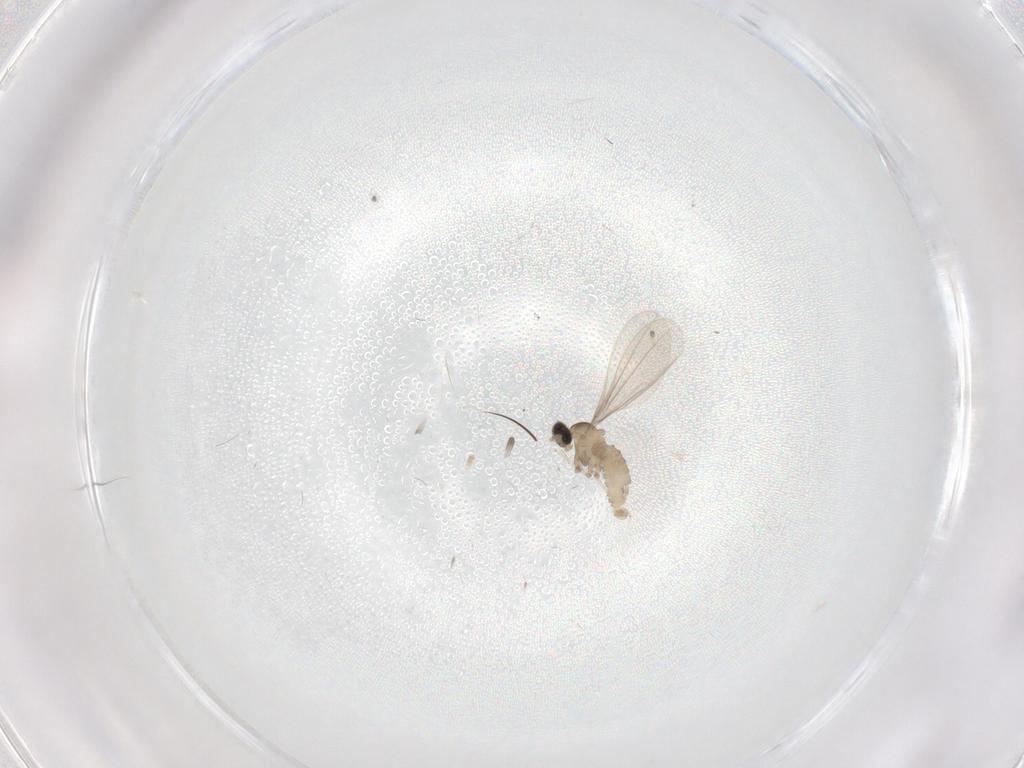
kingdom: Animalia
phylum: Arthropoda
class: Insecta
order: Diptera
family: Cecidomyiidae
